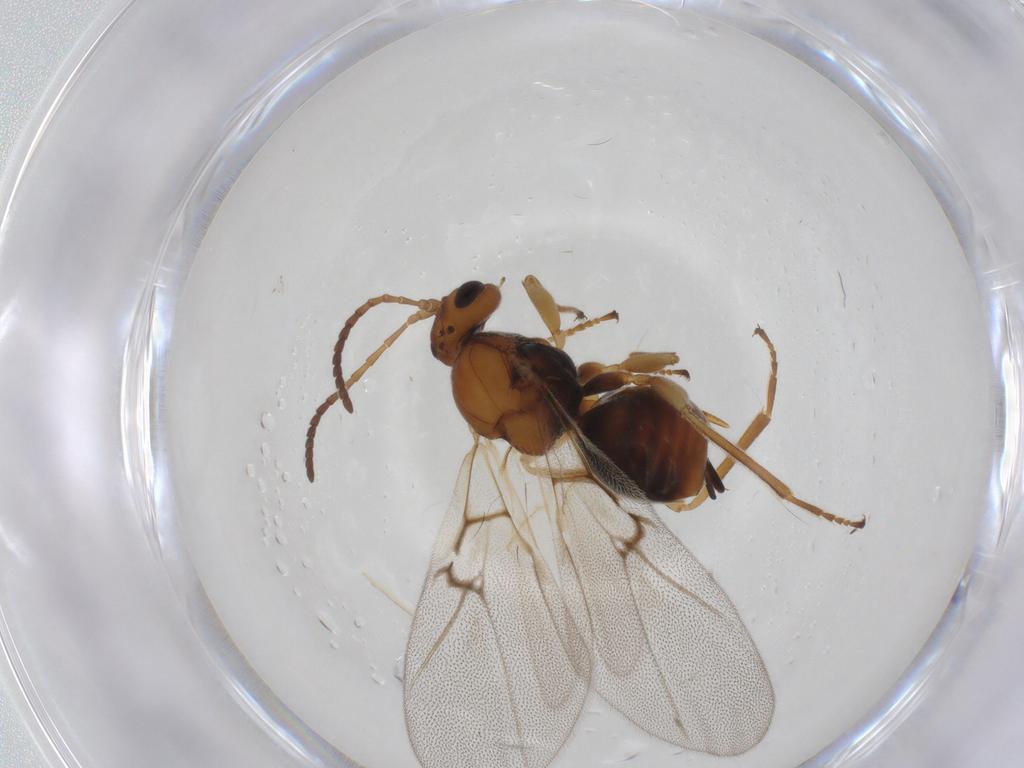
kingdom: Animalia
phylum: Arthropoda
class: Insecta
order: Hymenoptera
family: Cynipidae
